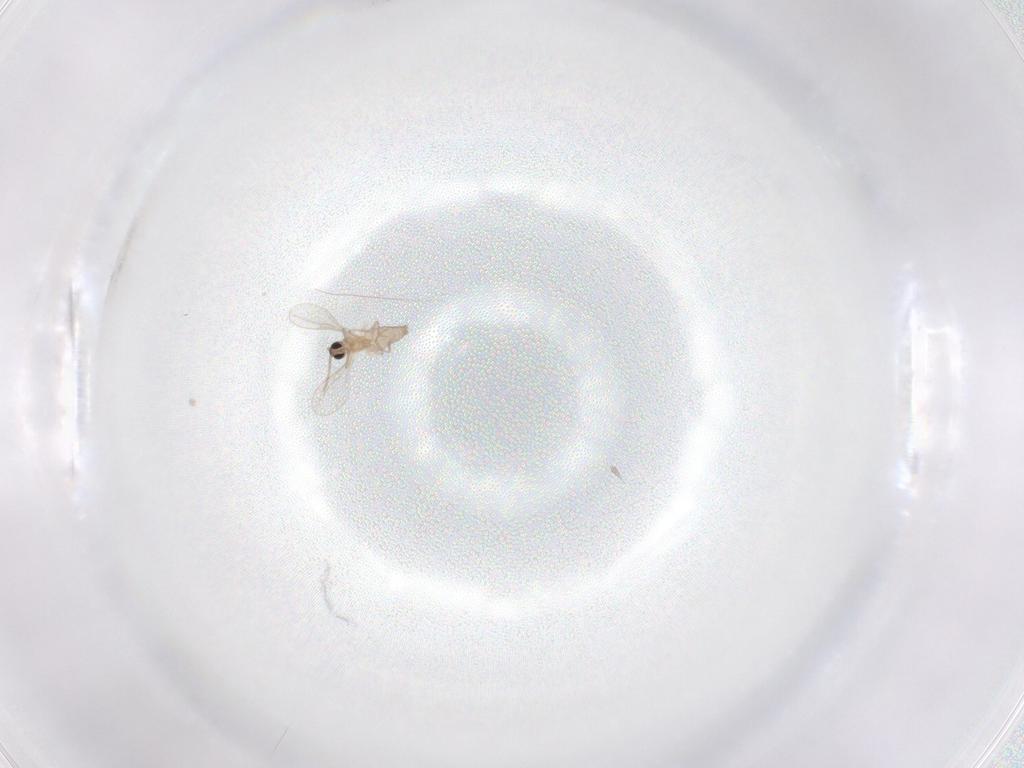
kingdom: Animalia
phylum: Arthropoda
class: Insecta
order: Diptera
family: Cecidomyiidae
